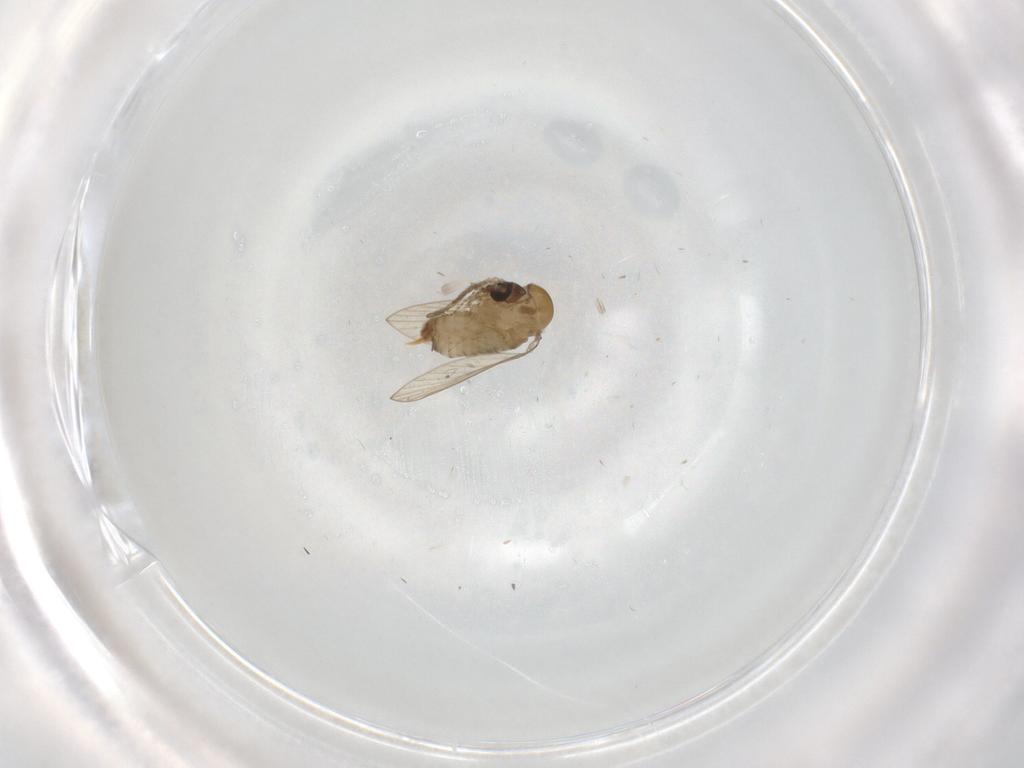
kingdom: Animalia
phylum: Arthropoda
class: Insecta
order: Diptera
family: Psychodidae
